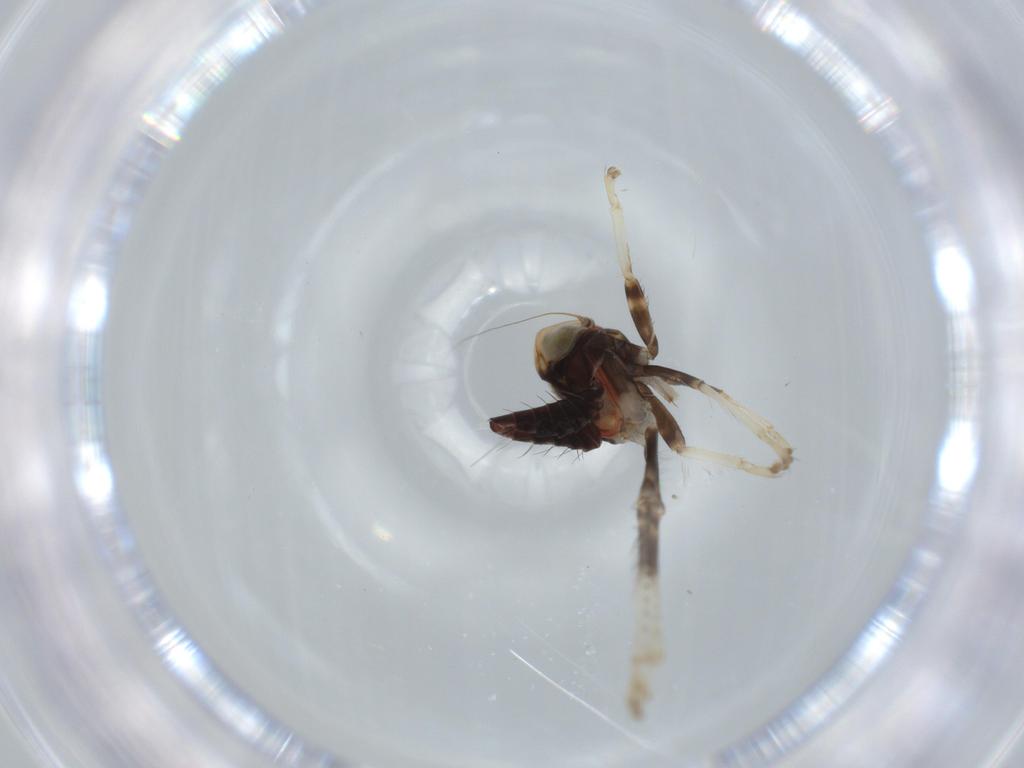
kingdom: Animalia
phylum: Arthropoda
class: Insecta
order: Hemiptera
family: Cicadellidae
